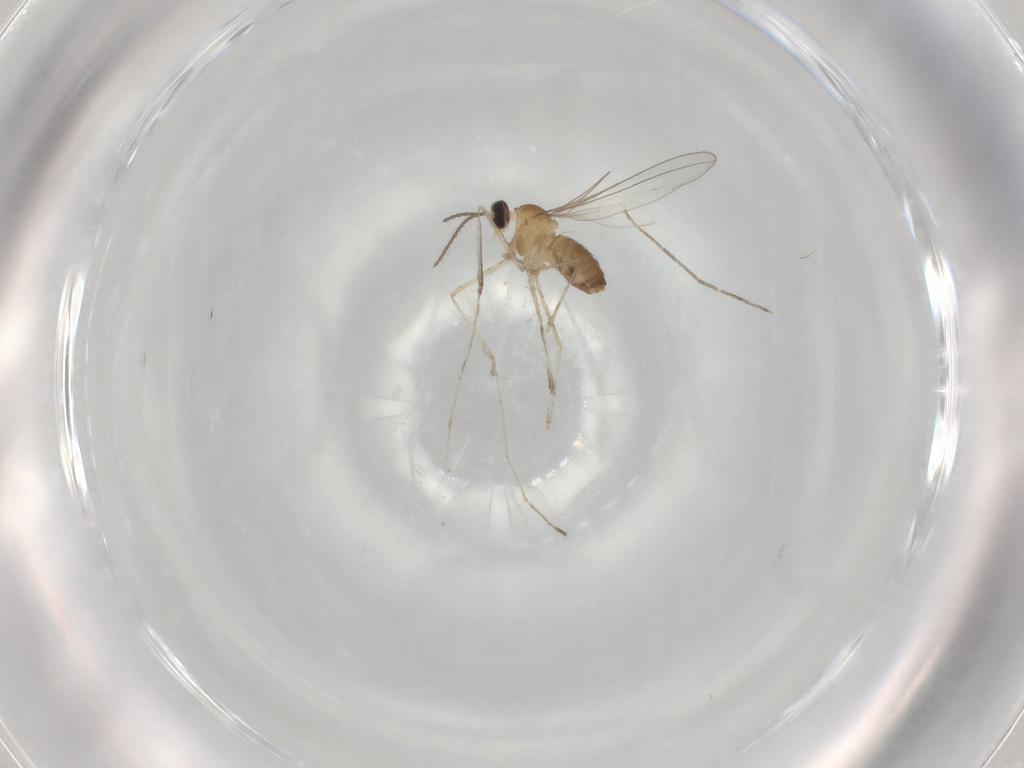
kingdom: Animalia
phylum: Arthropoda
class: Insecta
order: Diptera
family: Cecidomyiidae
